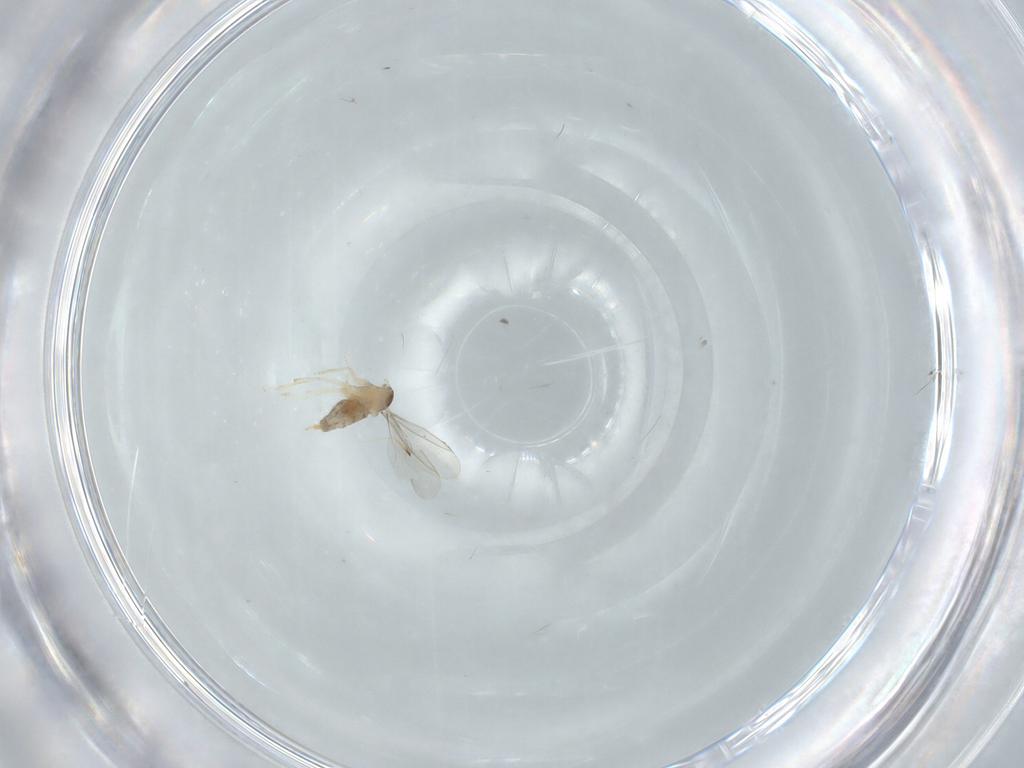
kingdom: Animalia
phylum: Arthropoda
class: Insecta
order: Diptera
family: Cecidomyiidae
